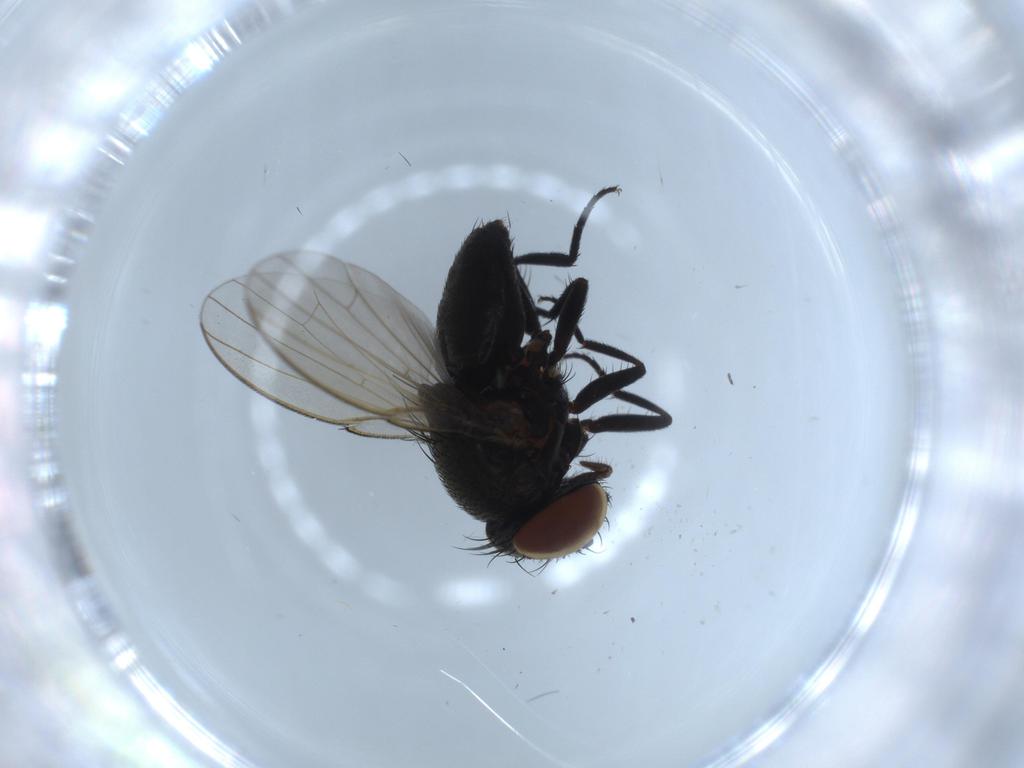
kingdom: Animalia
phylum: Arthropoda
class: Insecta
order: Diptera
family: Milichiidae
